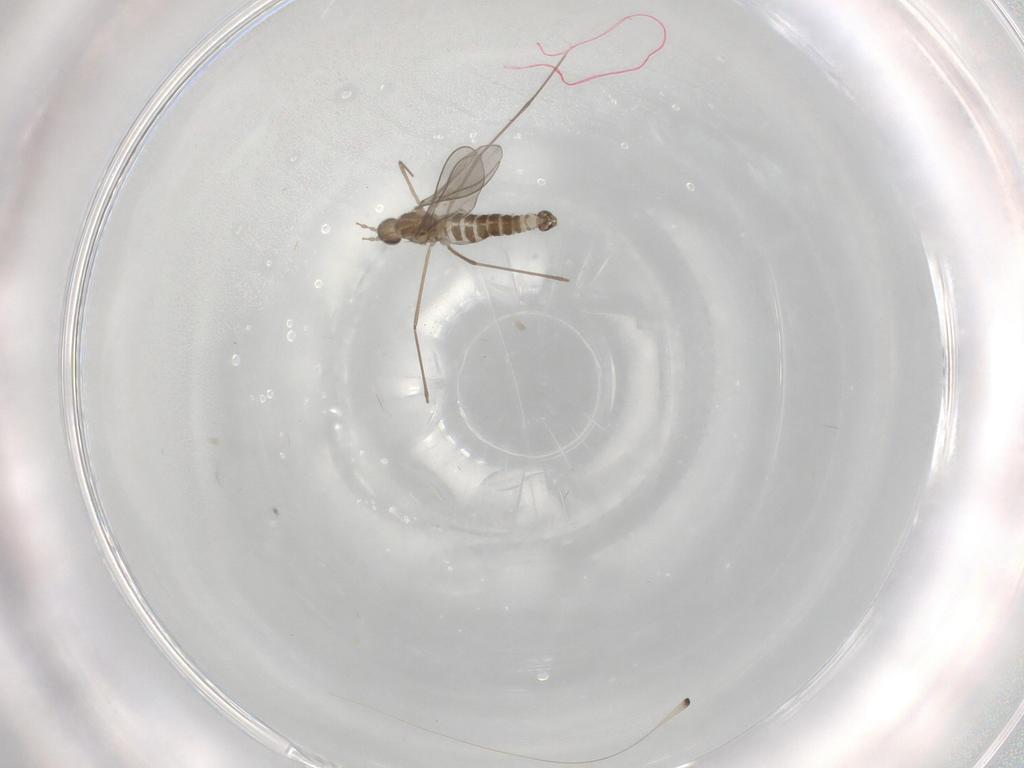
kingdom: Animalia
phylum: Arthropoda
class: Insecta
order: Diptera
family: Cecidomyiidae
